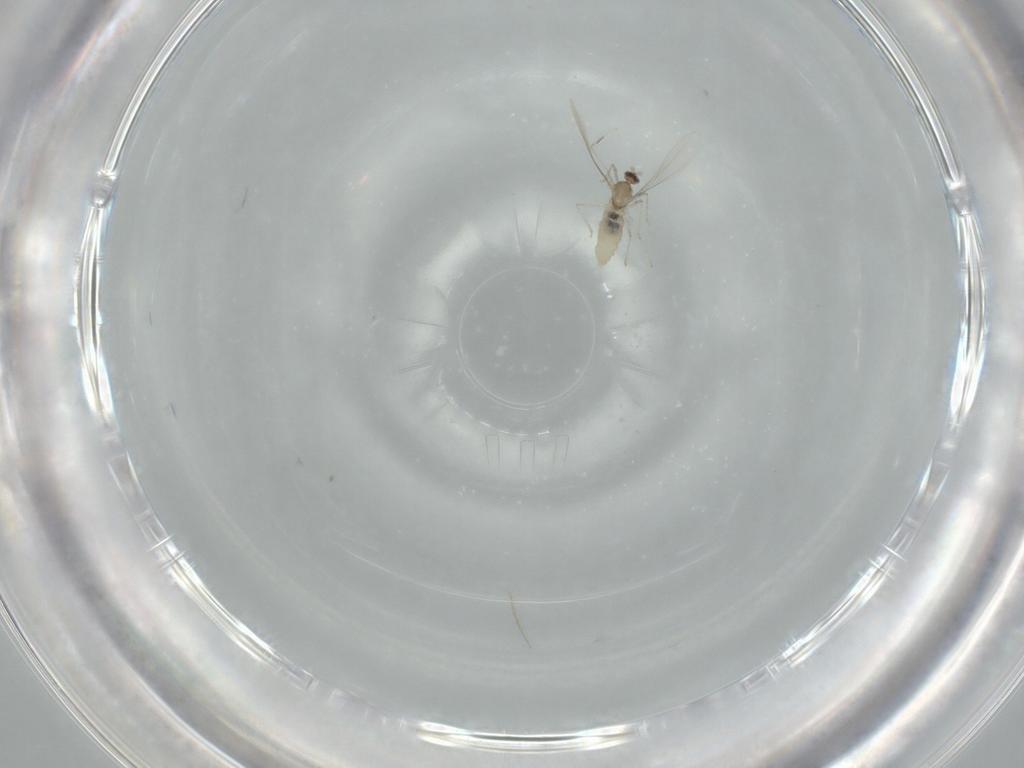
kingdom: Animalia
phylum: Arthropoda
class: Insecta
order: Diptera
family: Cecidomyiidae
